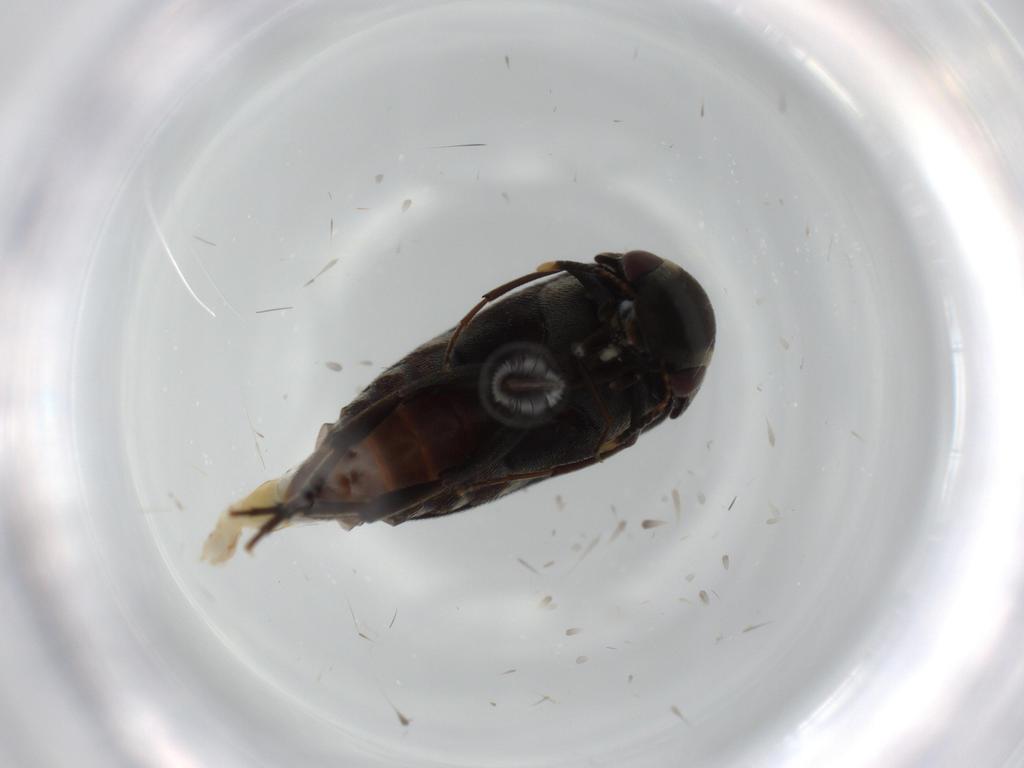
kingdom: Animalia
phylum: Arthropoda
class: Insecta
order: Coleoptera
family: Mordellidae
